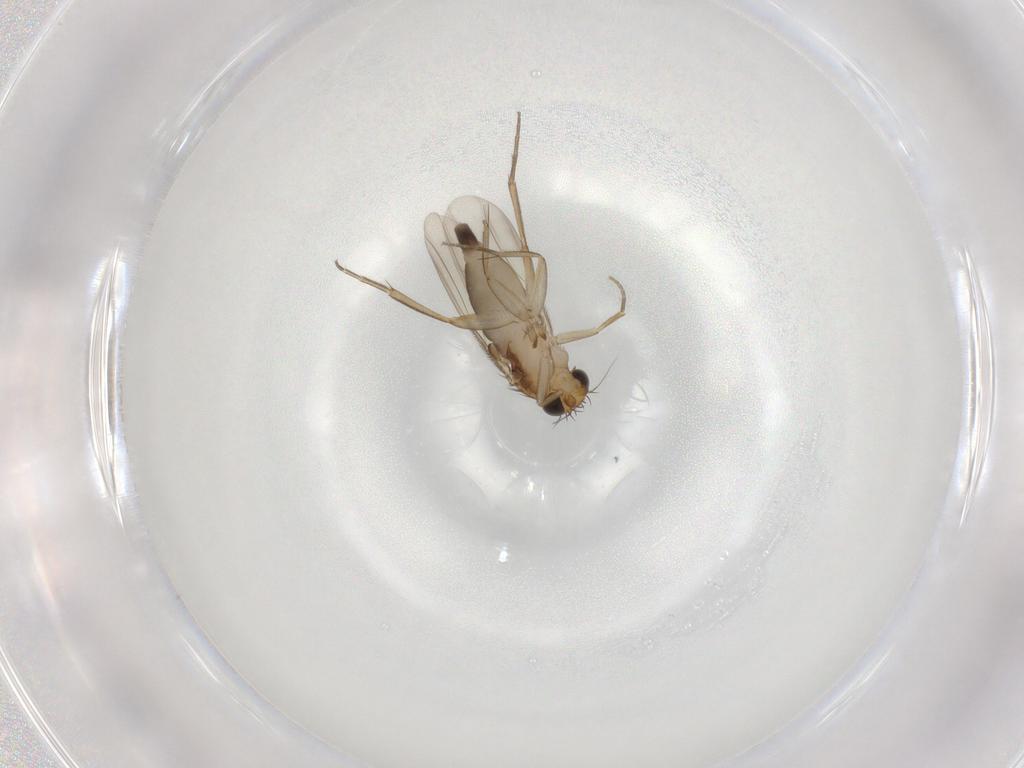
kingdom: Animalia
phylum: Arthropoda
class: Insecta
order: Diptera
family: Phoridae
